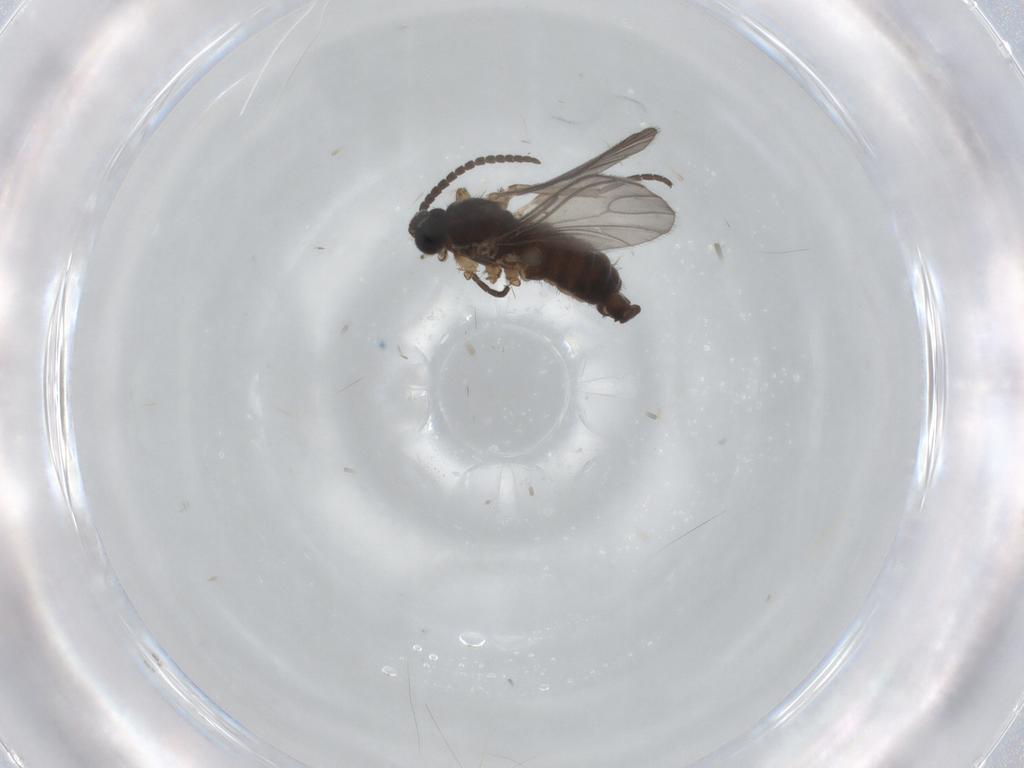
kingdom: Animalia
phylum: Arthropoda
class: Insecta
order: Diptera
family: Sciaridae
